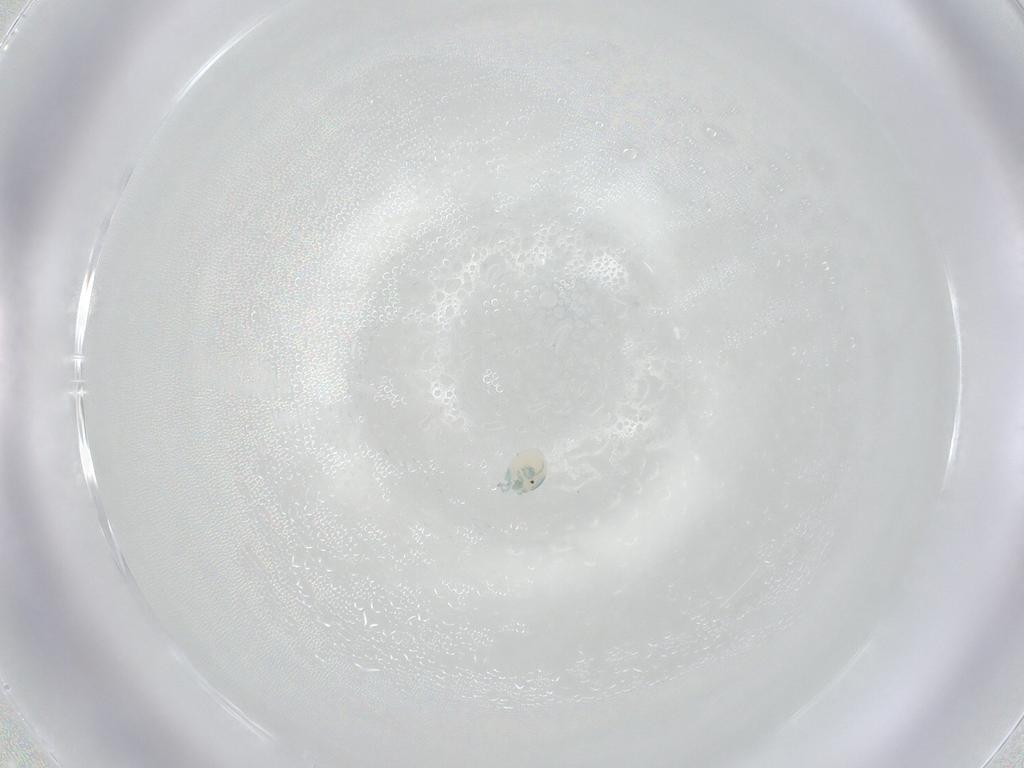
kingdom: Animalia
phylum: Arthropoda
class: Arachnida
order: Trombidiformes
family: Arrenuridae
